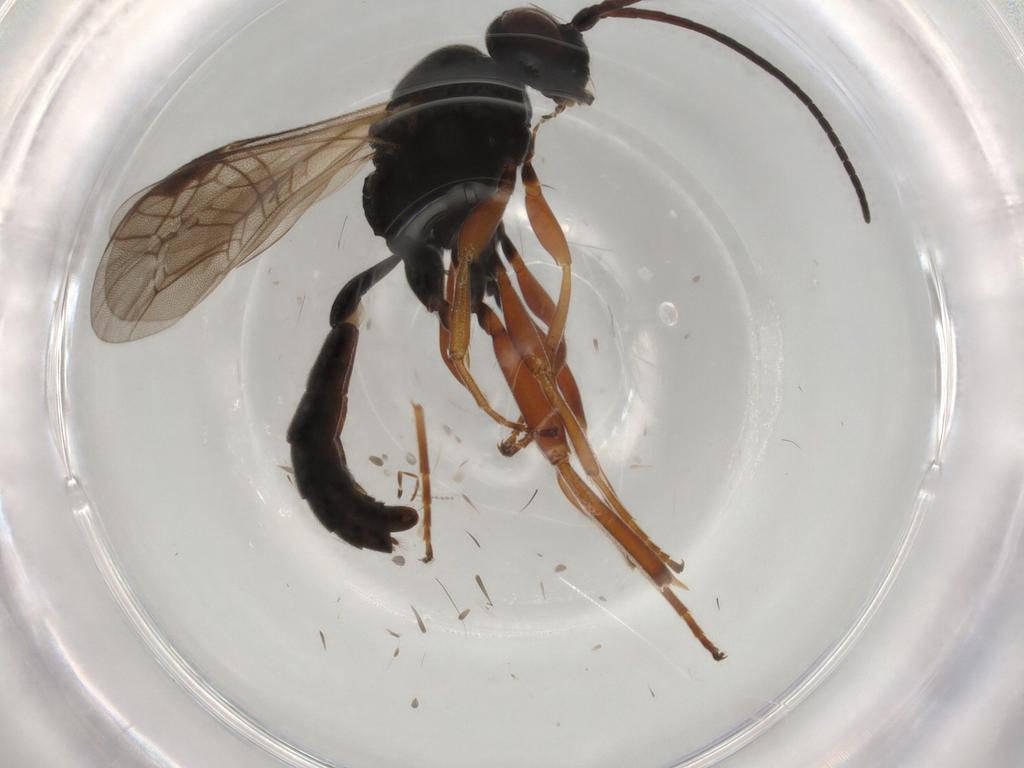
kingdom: Animalia
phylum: Arthropoda
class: Insecta
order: Hymenoptera
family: Ichneumonidae
